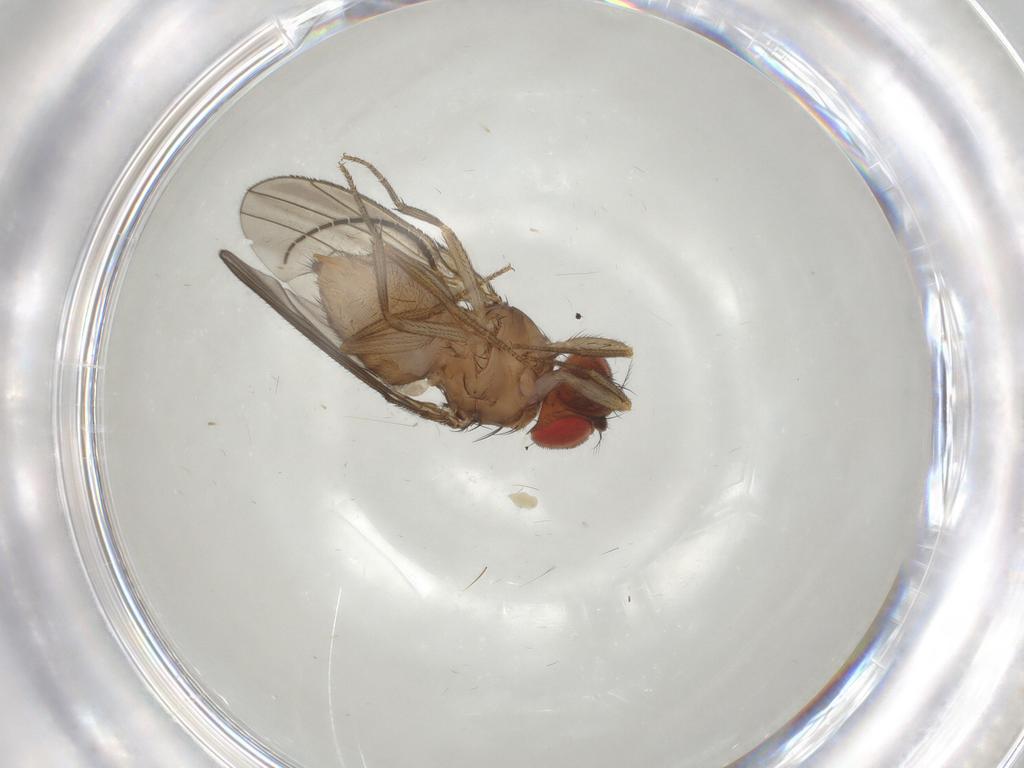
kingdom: Animalia
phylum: Arthropoda
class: Insecta
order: Diptera
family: Drosophilidae
